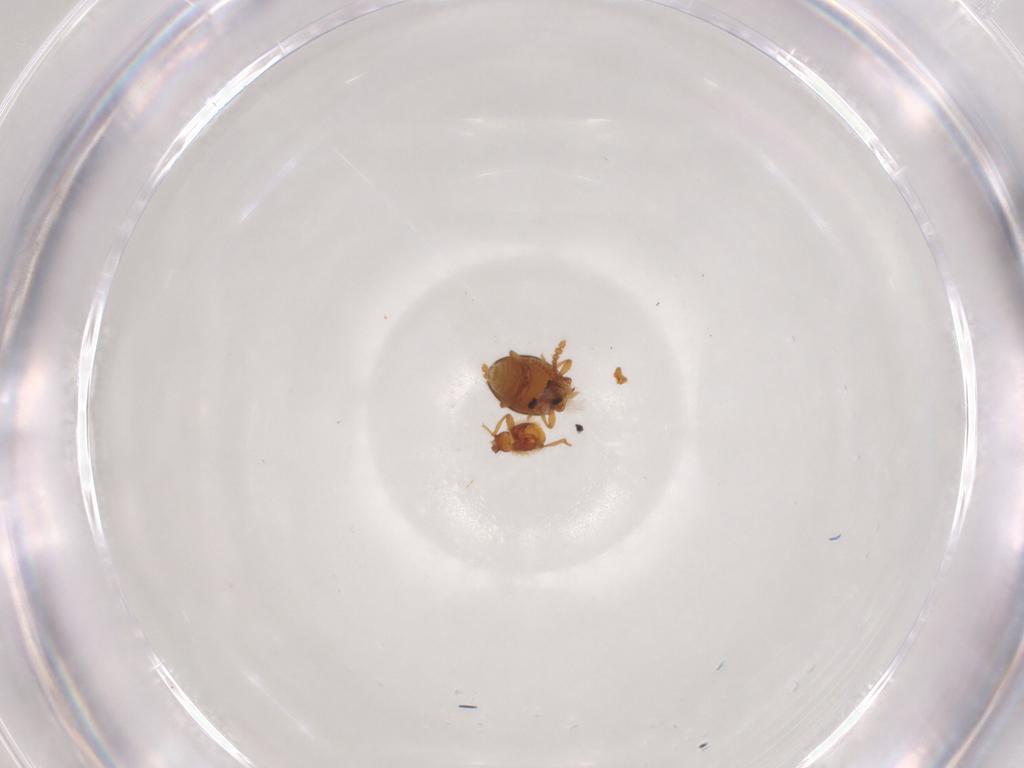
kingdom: Animalia
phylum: Arthropoda
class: Insecta
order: Coleoptera
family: Staphylinidae
